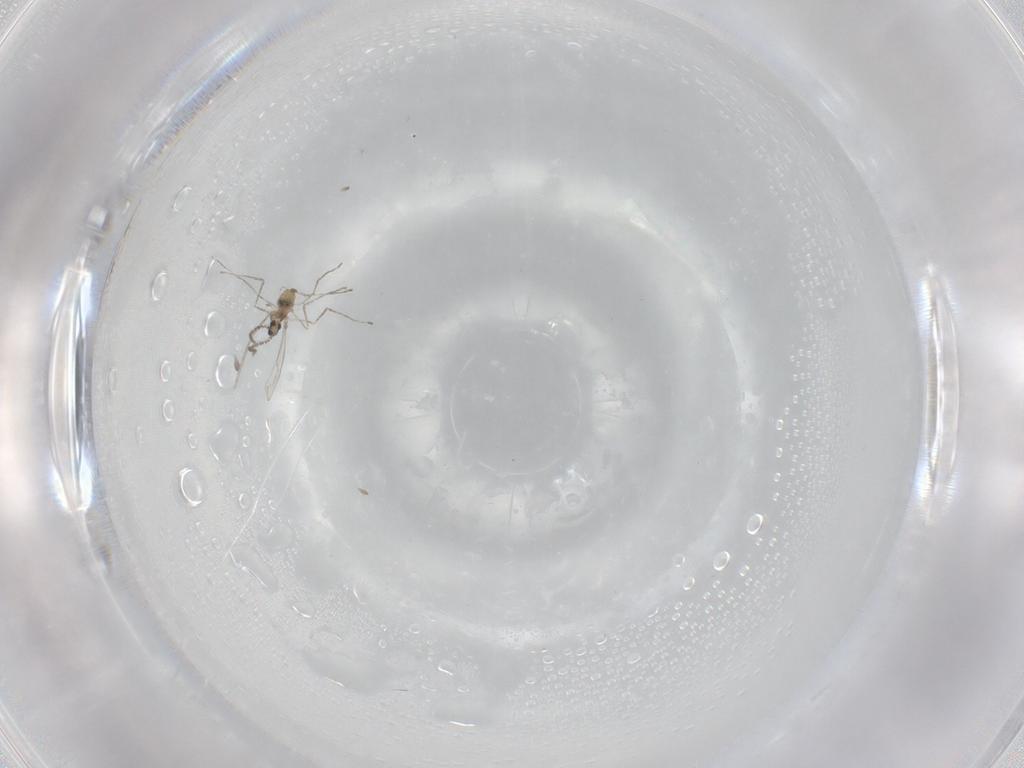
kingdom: Animalia
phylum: Arthropoda
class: Insecta
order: Diptera
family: Cecidomyiidae
